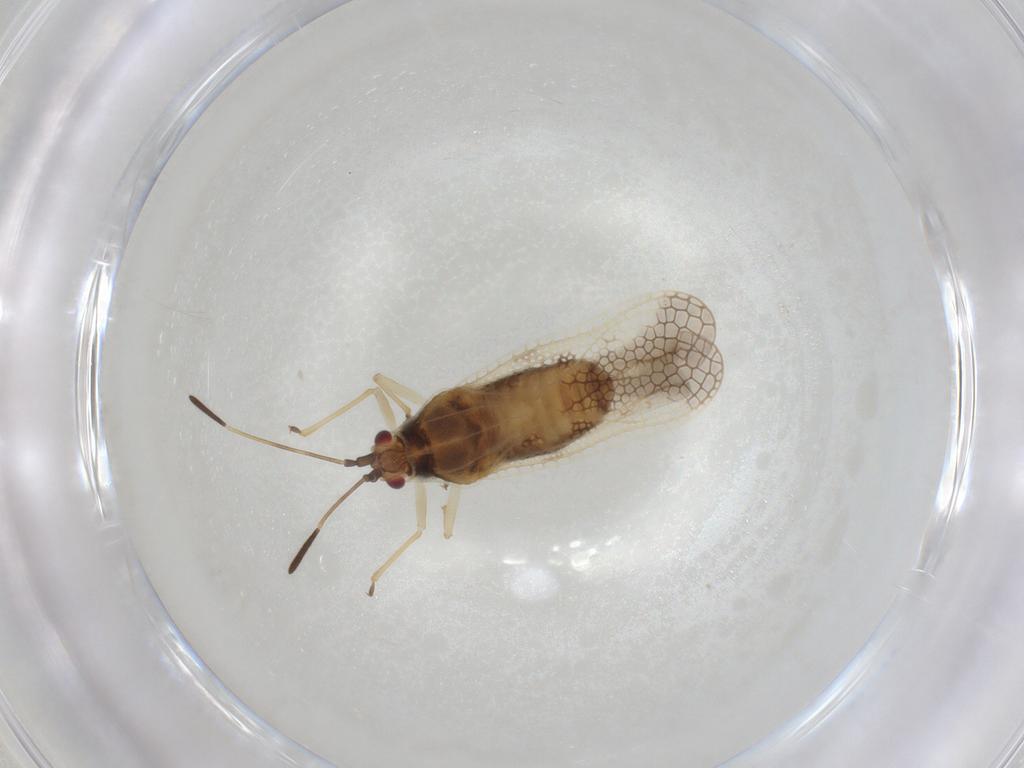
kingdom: Animalia
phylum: Arthropoda
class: Insecta
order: Hemiptera
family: Tingidae
